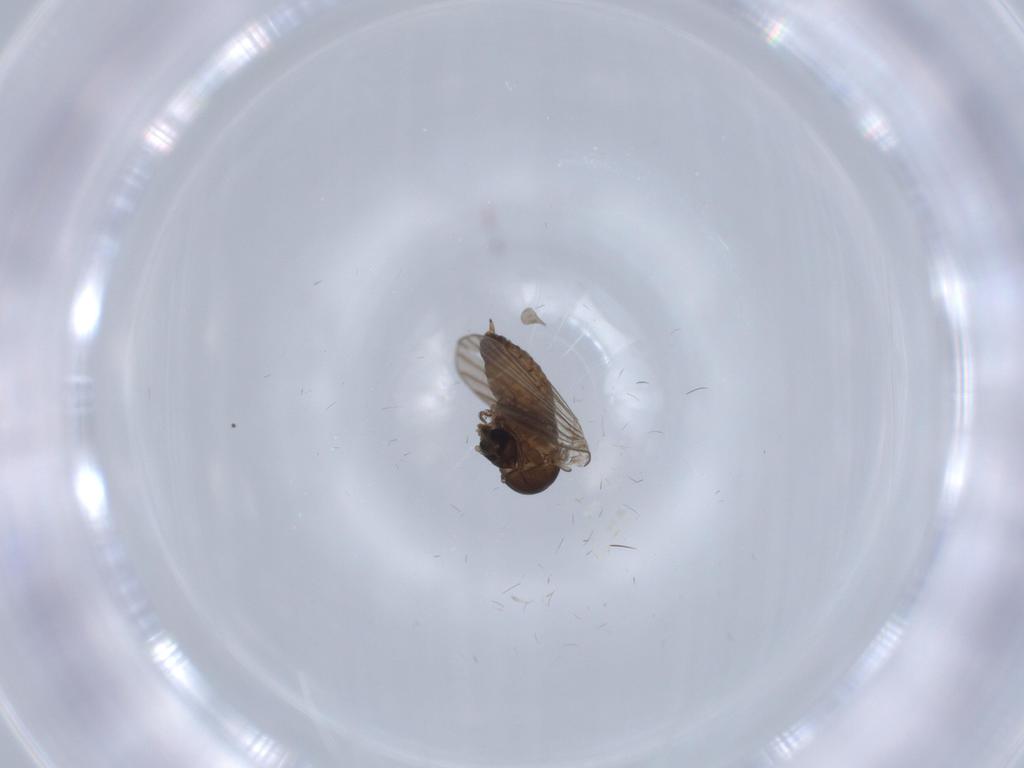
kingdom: Animalia
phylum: Arthropoda
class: Insecta
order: Diptera
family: Psychodidae
